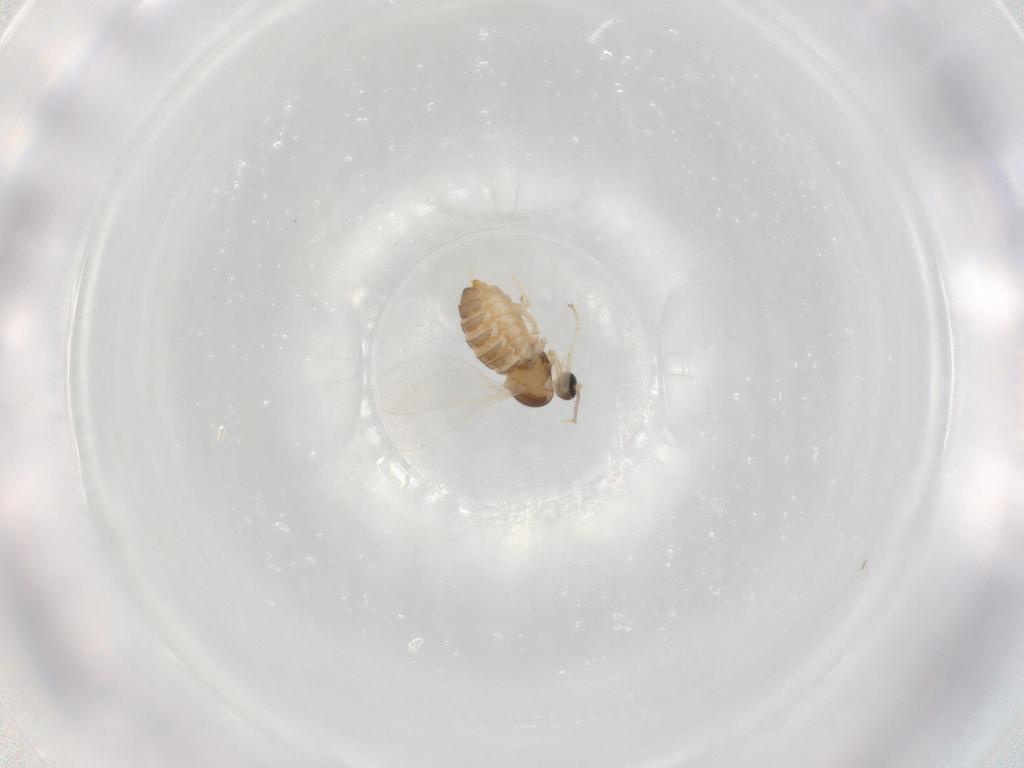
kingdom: Animalia
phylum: Arthropoda
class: Insecta
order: Diptera
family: Cecidomyiidae
